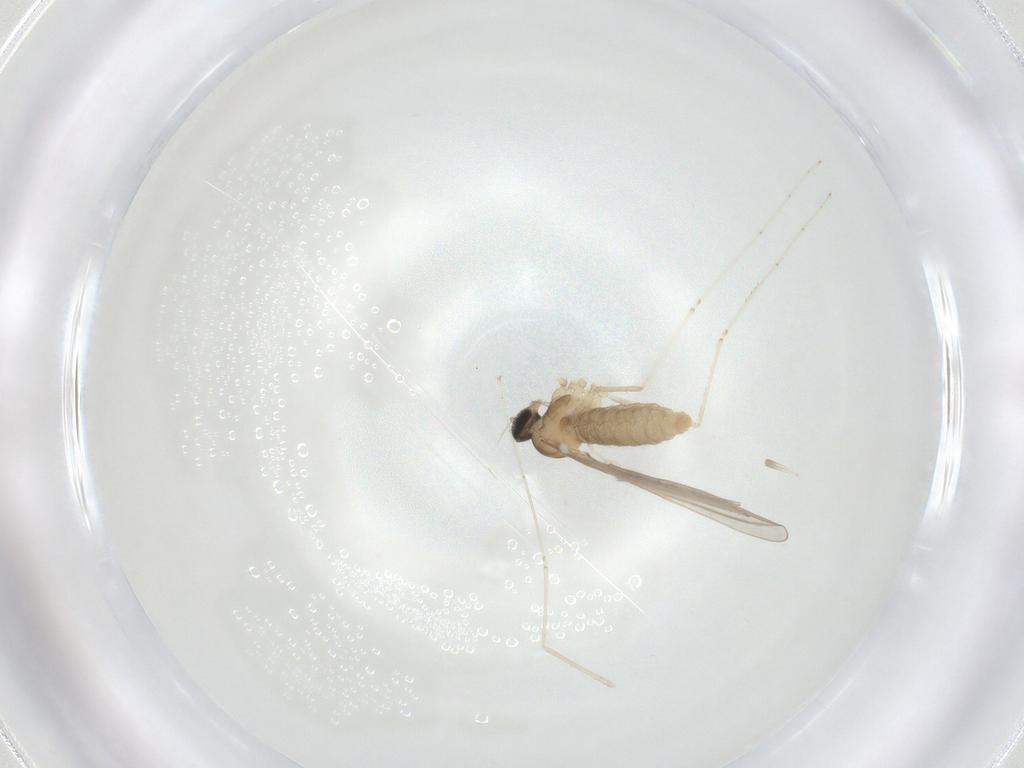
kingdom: Animalia
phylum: Arthropoda
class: Insecta
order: Diptera
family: Cecidomyiidae
